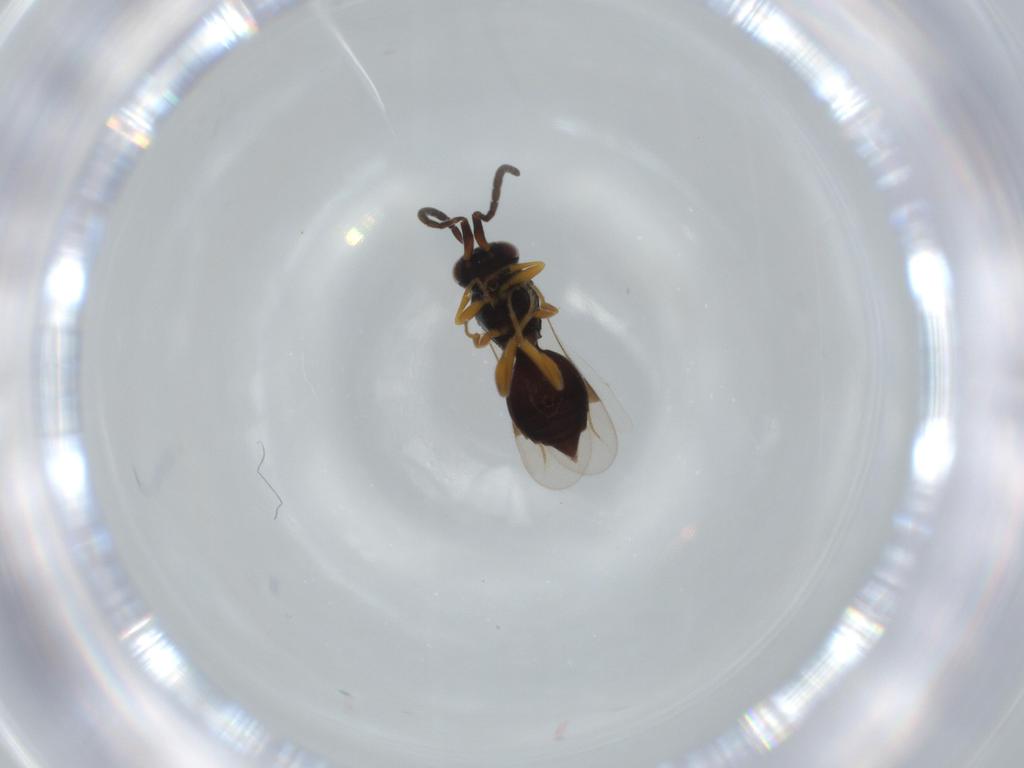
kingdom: Animalia
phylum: Arthropoda
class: Insecta
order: Hymenoptera
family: Megaspilidae
